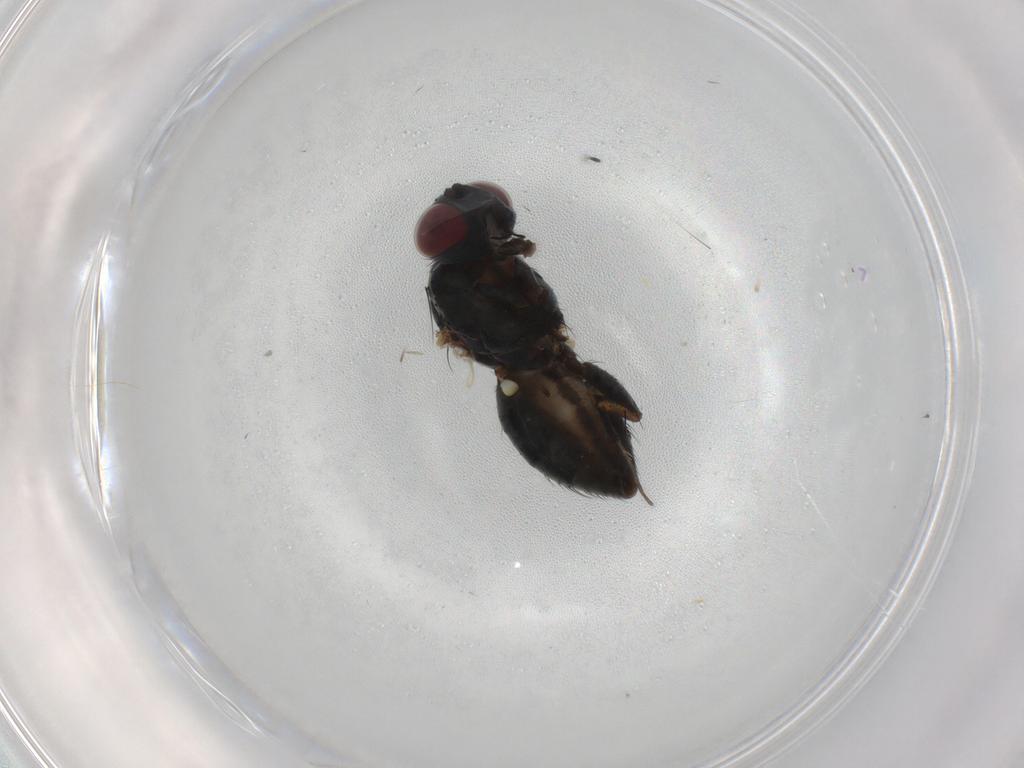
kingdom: Animalia
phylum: Arthropoda
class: Insecta
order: Diptera
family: Muscidae
